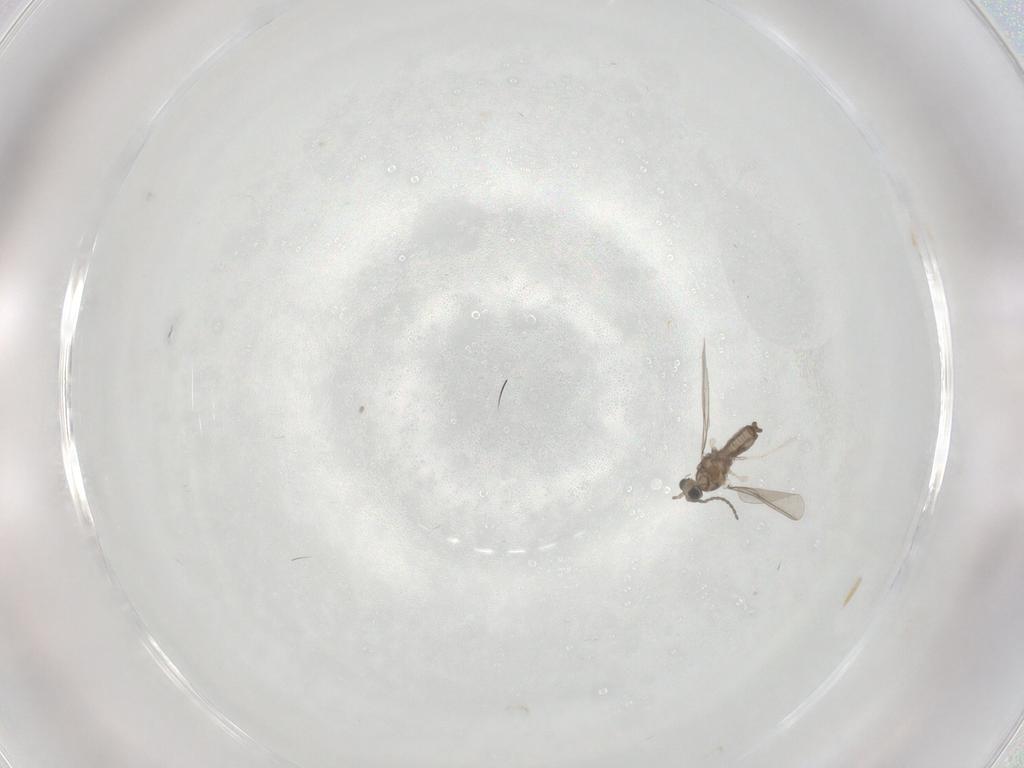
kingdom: Animalia
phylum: Arthropoda
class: Insecta
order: Diptera
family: Cecidomyiidae
